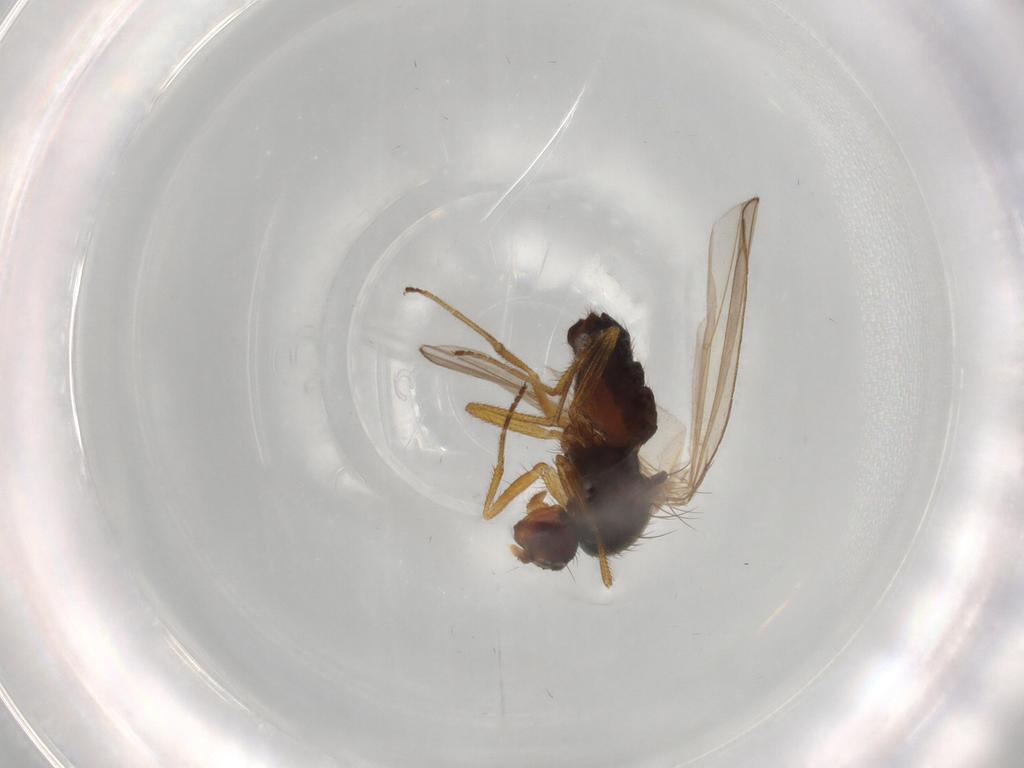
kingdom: Animalia
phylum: Arthropoda
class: Insecta
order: Diptera
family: Drosophilidae
